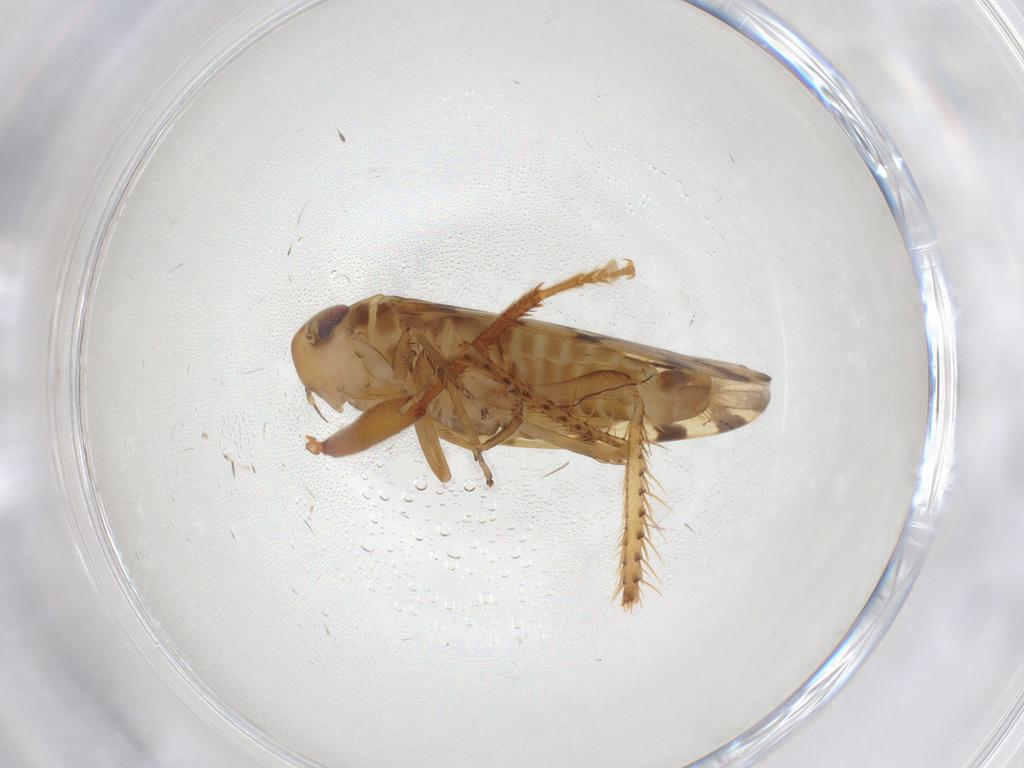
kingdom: Animalia
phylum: Arthropoda
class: Insecta
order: Hemiptera
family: Cicadellidae
